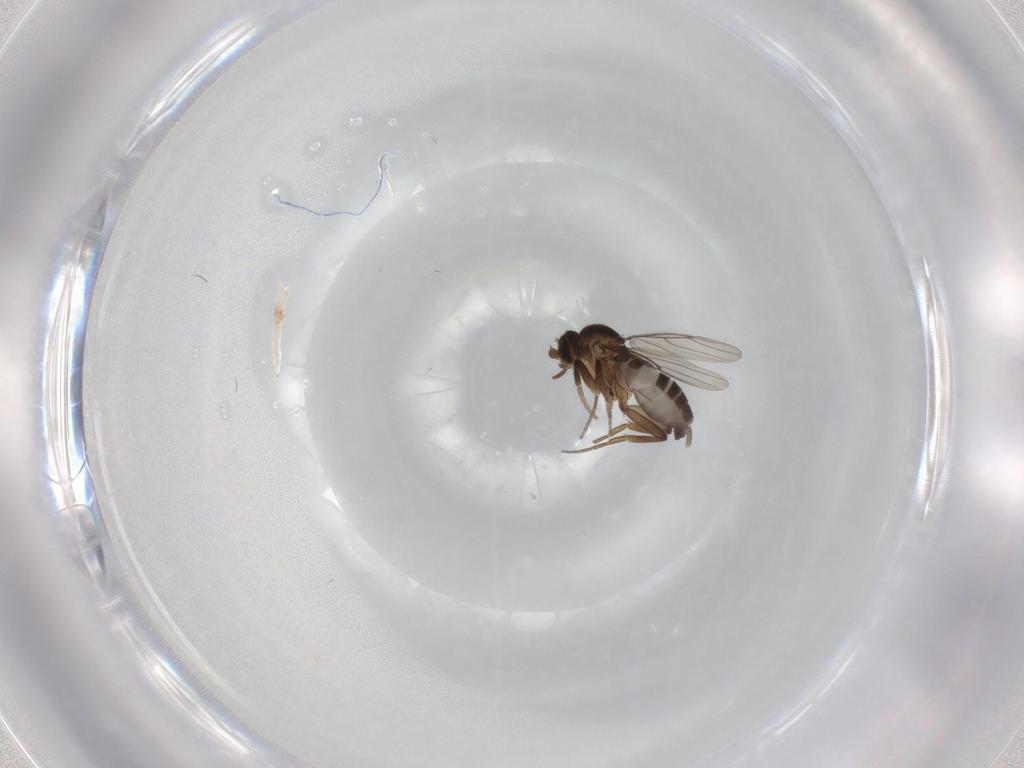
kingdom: Animalia
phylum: Arthropoda
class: Insecta
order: Diptera
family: Phoridae
